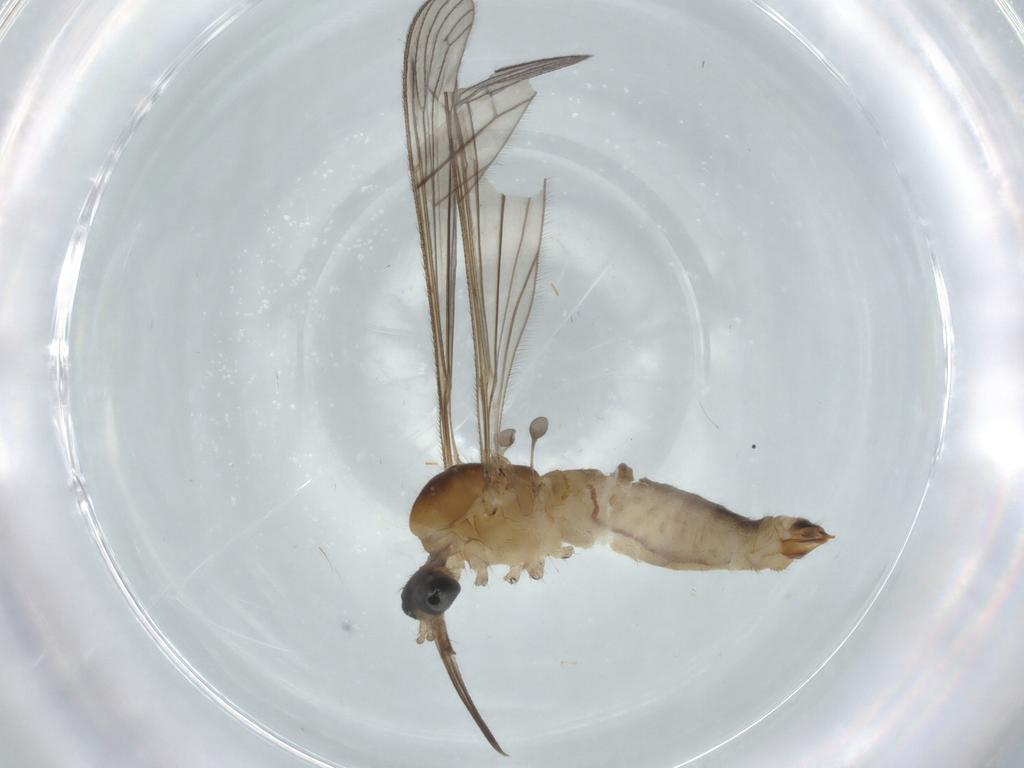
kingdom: Animalia
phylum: Arthropoda
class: Insecta
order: Diptera
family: Cecidomyiidae
